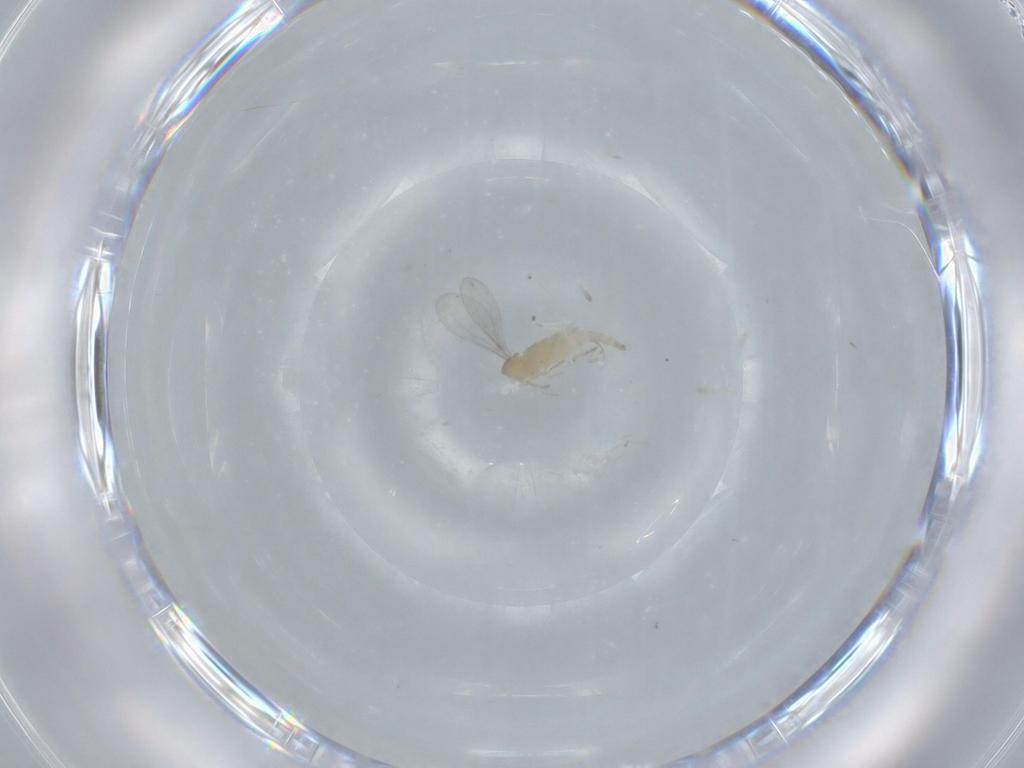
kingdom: Animalia
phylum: Arthropoda
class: Insecta
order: Diptera
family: Cecidomyiidae
